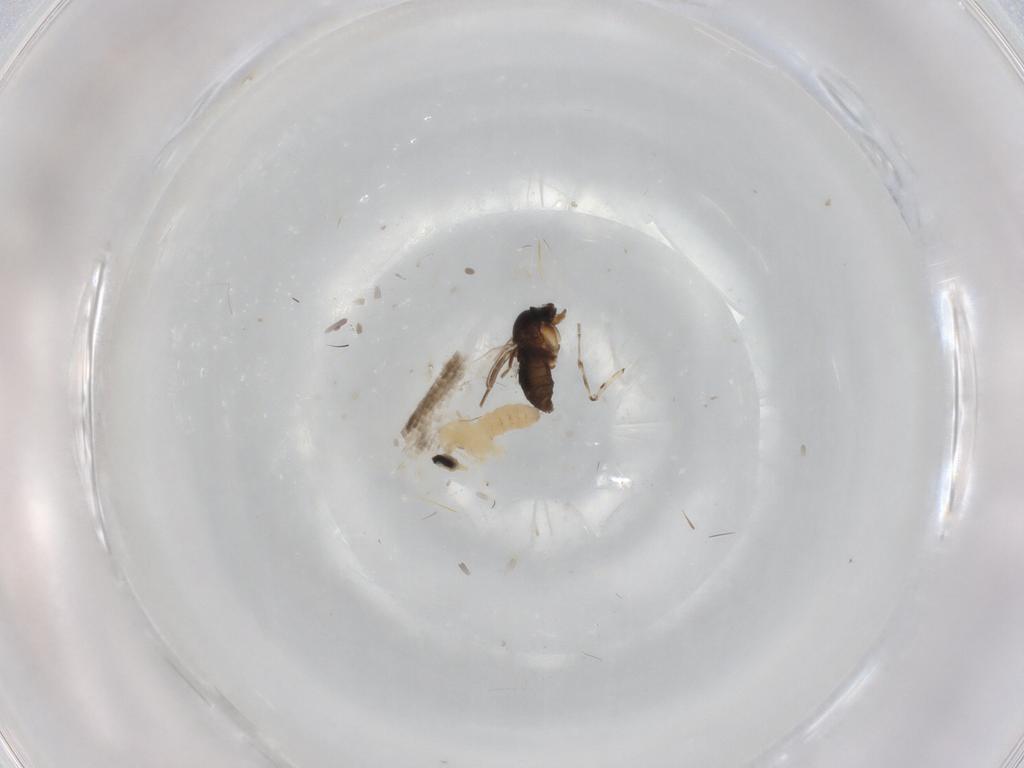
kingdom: Animalia
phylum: Arthropoda
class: Insecta
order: Diptera
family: Cecidomyiidae
